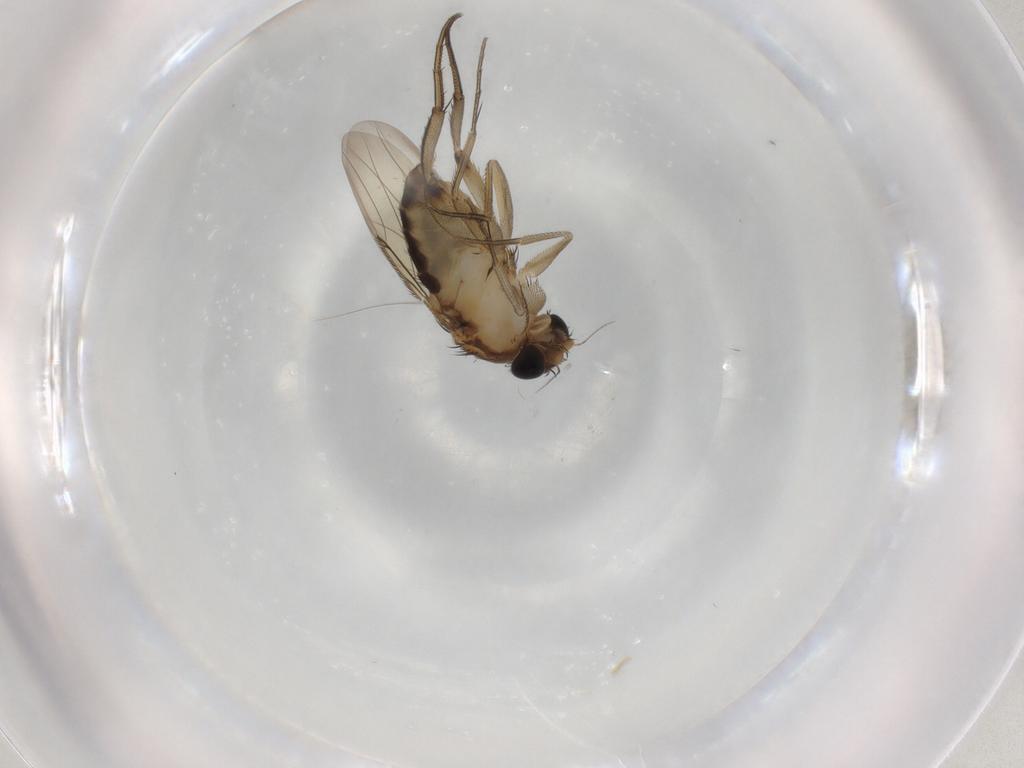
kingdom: Animalia
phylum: Arthropoda
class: Insecta
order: Diptera
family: Phoridae
